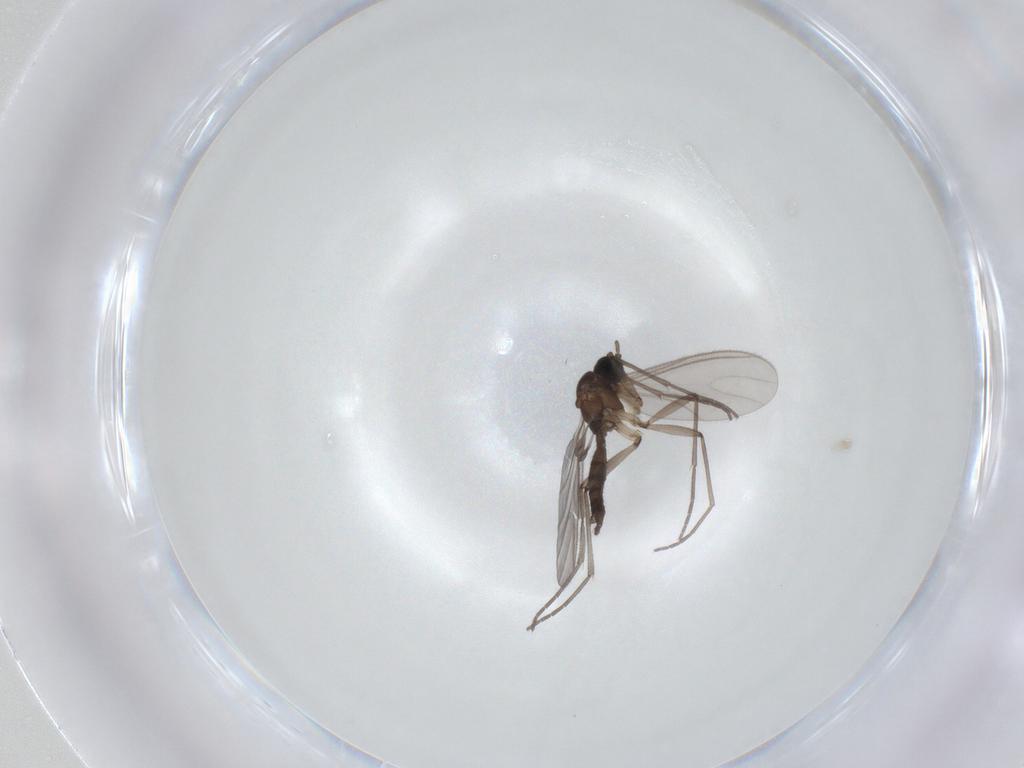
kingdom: Animalia
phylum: Arthropoda
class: Insecta
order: Diptera
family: Sciaridae
